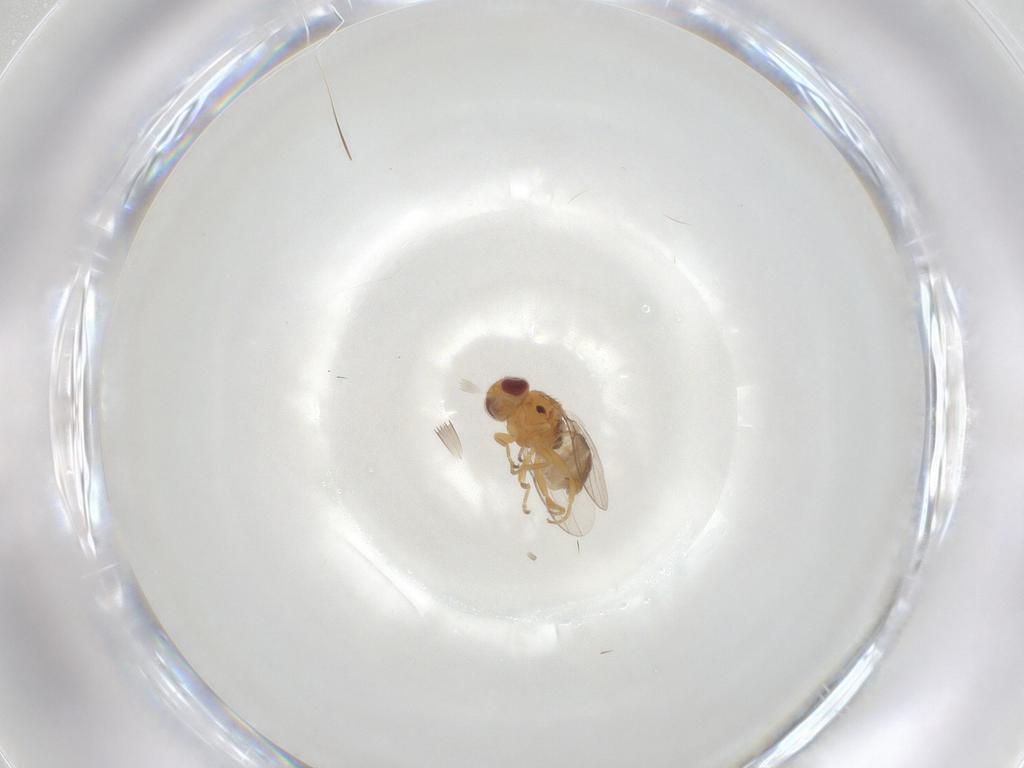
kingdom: Animalia
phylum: Arthropoda
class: Insecta
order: Diptera
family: Chloropidae
